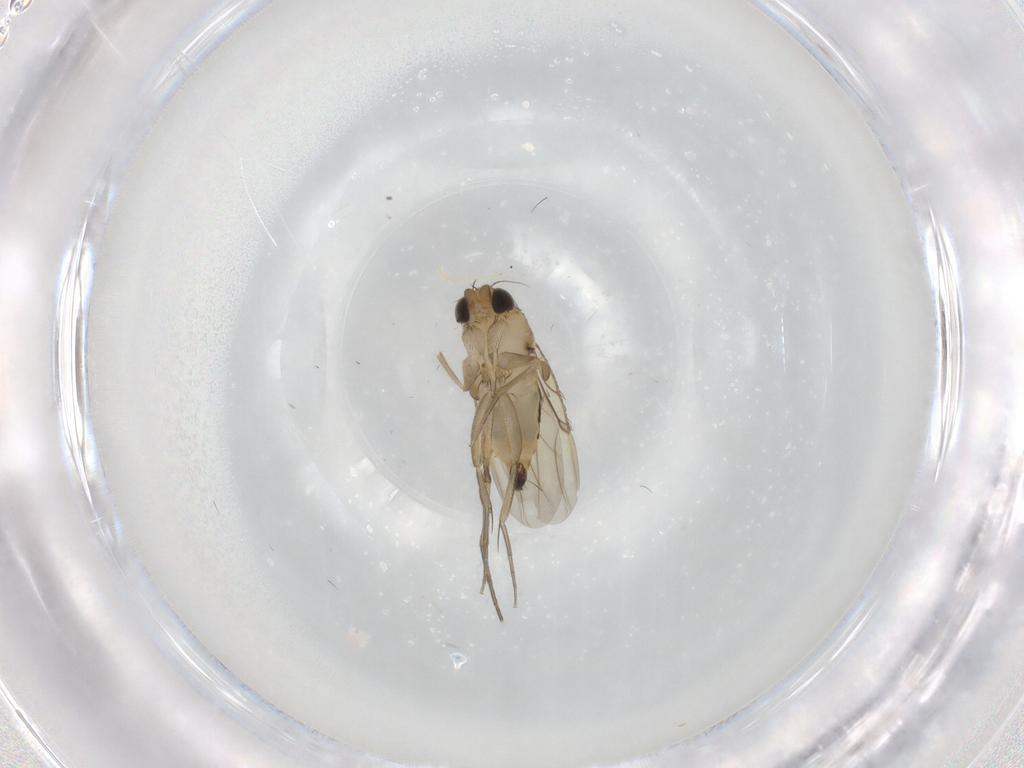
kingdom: Animalia
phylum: Arthropoda
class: Insecta
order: Diptera
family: Phoridae
